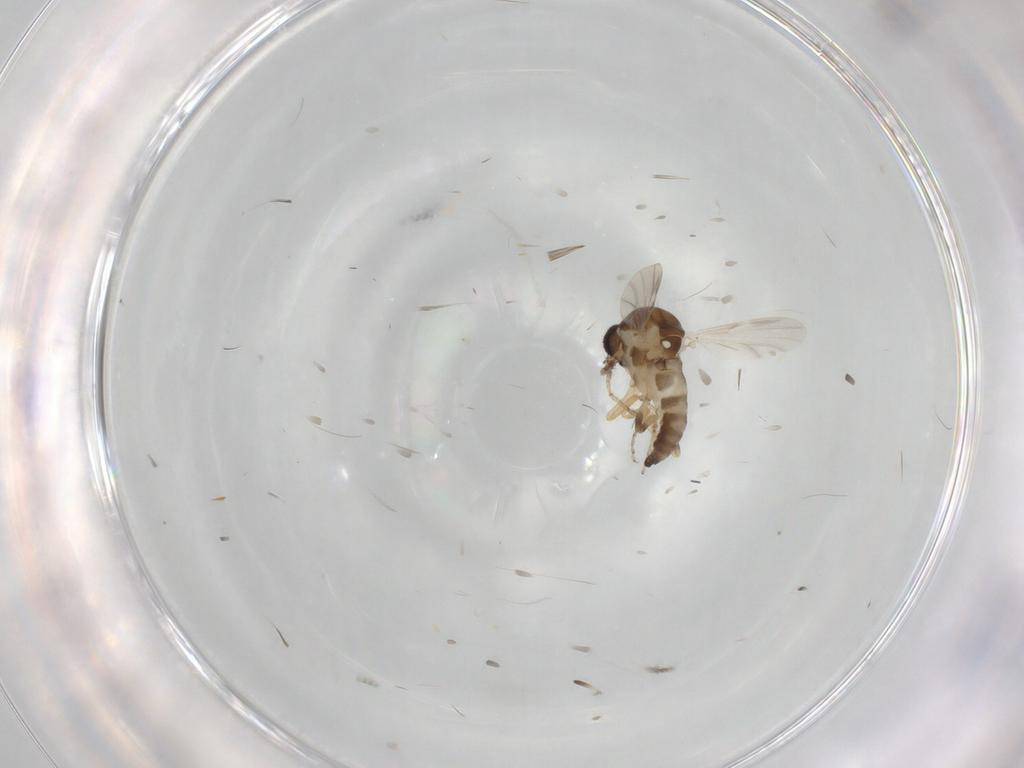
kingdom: Animalia
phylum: Arthropoda
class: Insecta
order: Diptera
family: Ceratopogonidae
